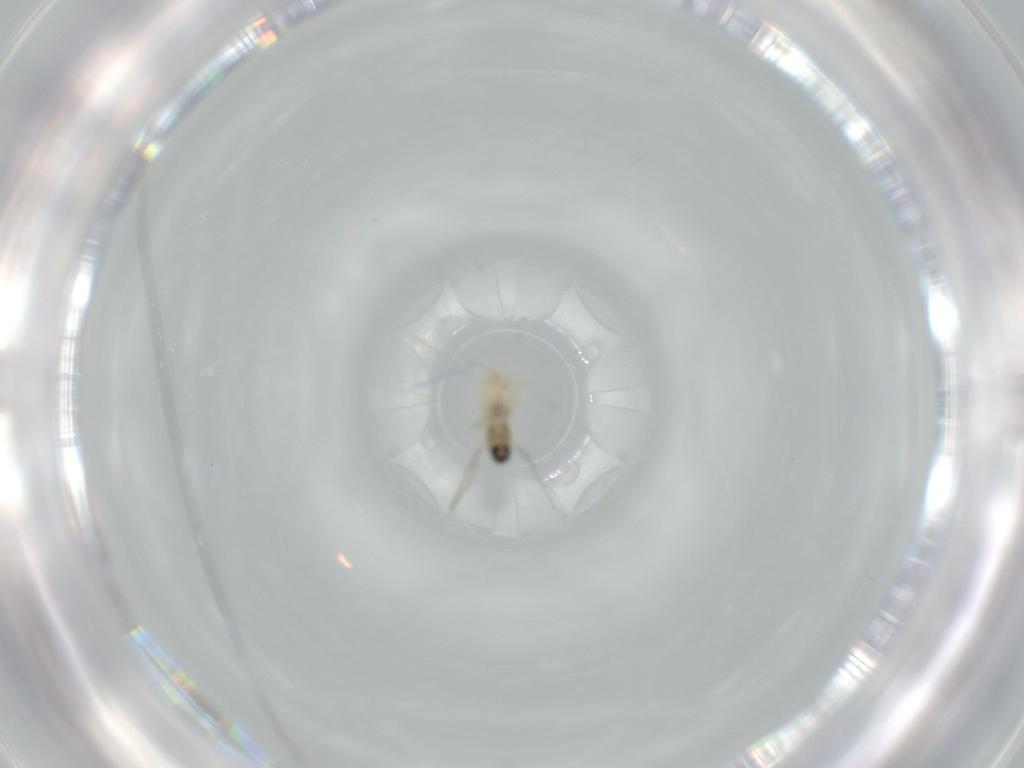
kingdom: Animalia
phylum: Arthropoda
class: Insecta
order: Diptera
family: Cecidomyiidae
